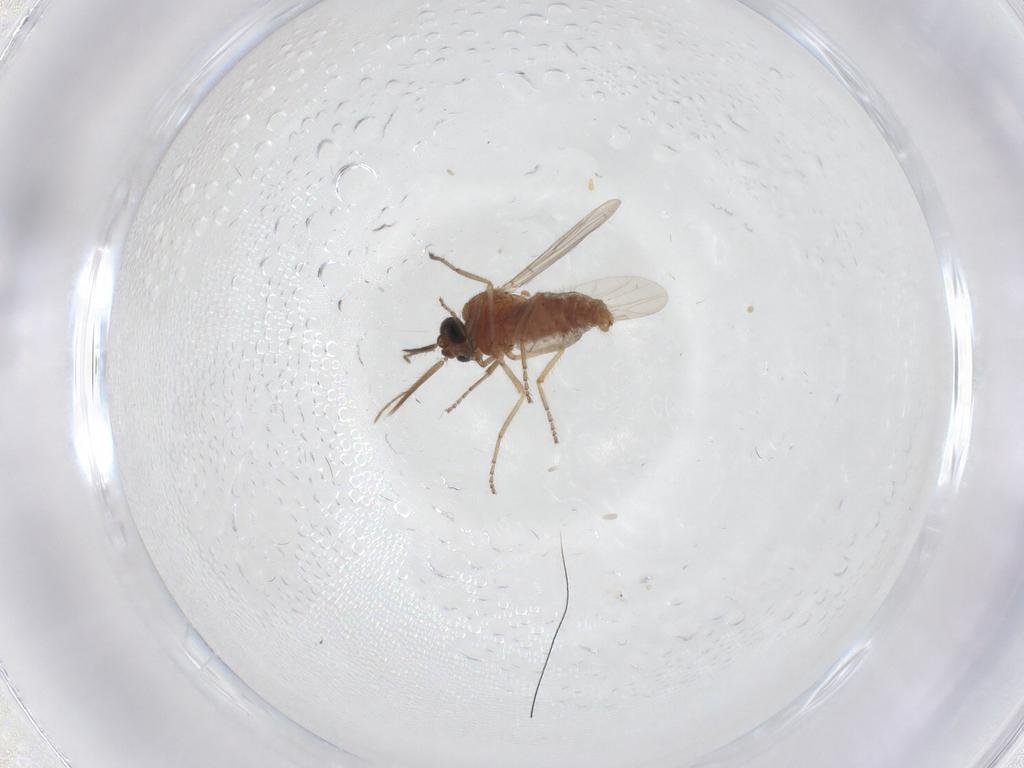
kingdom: Animalia
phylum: Arthropoda
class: Insecta
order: Diptera
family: Ceratopogonidae
